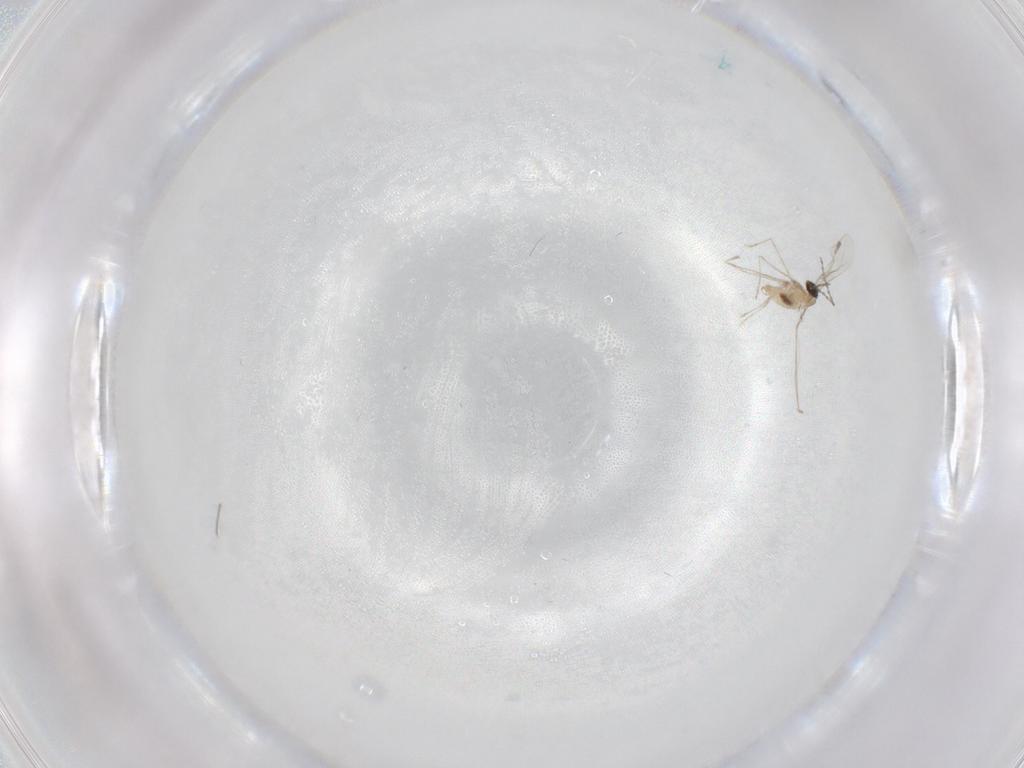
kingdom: Animalia
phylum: Arthropoda
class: Insecta
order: Diptera
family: Cecidomyiidae
